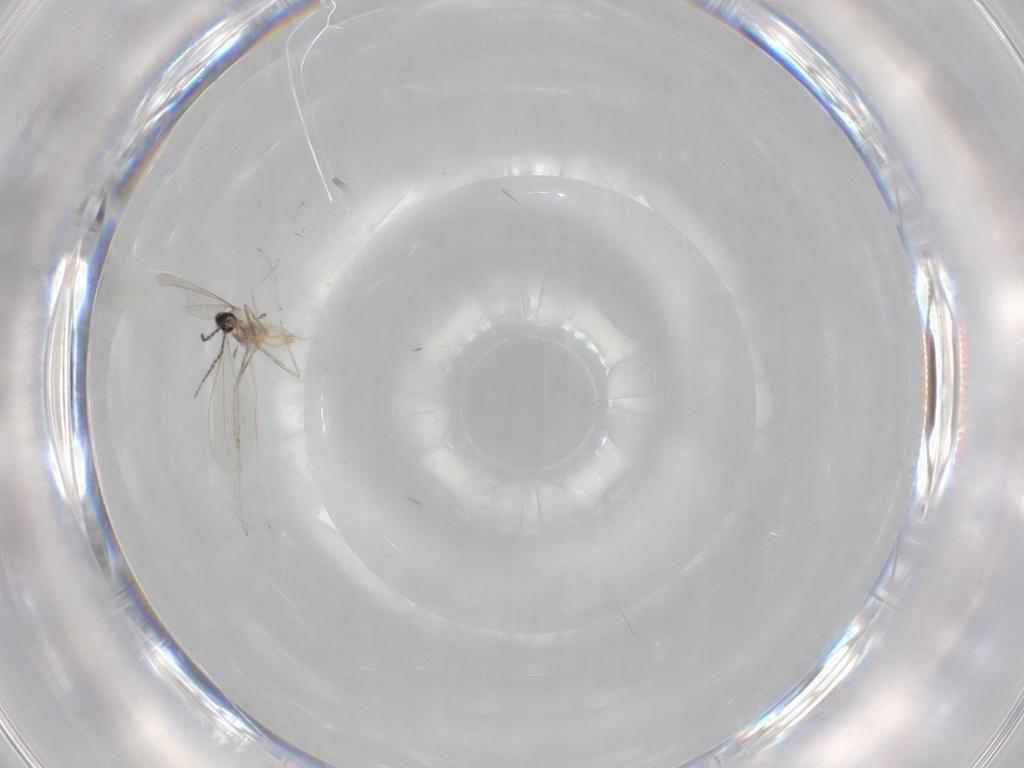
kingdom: Animalia
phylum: Arthropoda
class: Insecta
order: Diptera
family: Cecidomyiidae
